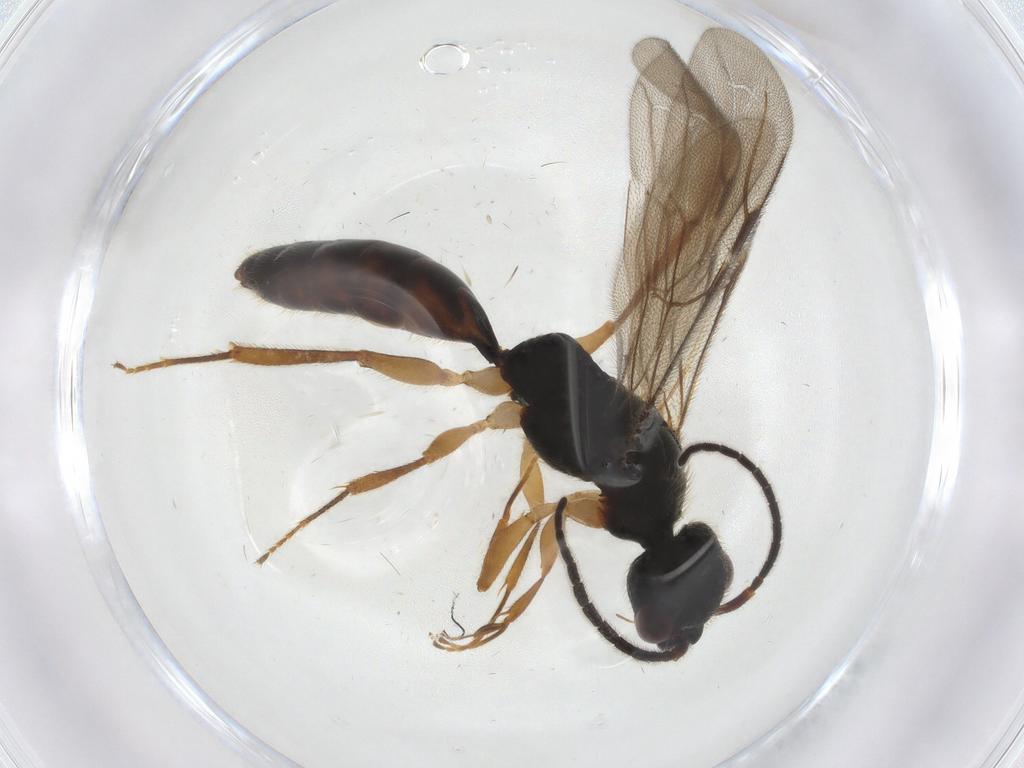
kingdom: Animalia
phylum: Arthropoda
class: Insecta
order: Hymenoptera
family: Bethylidae
